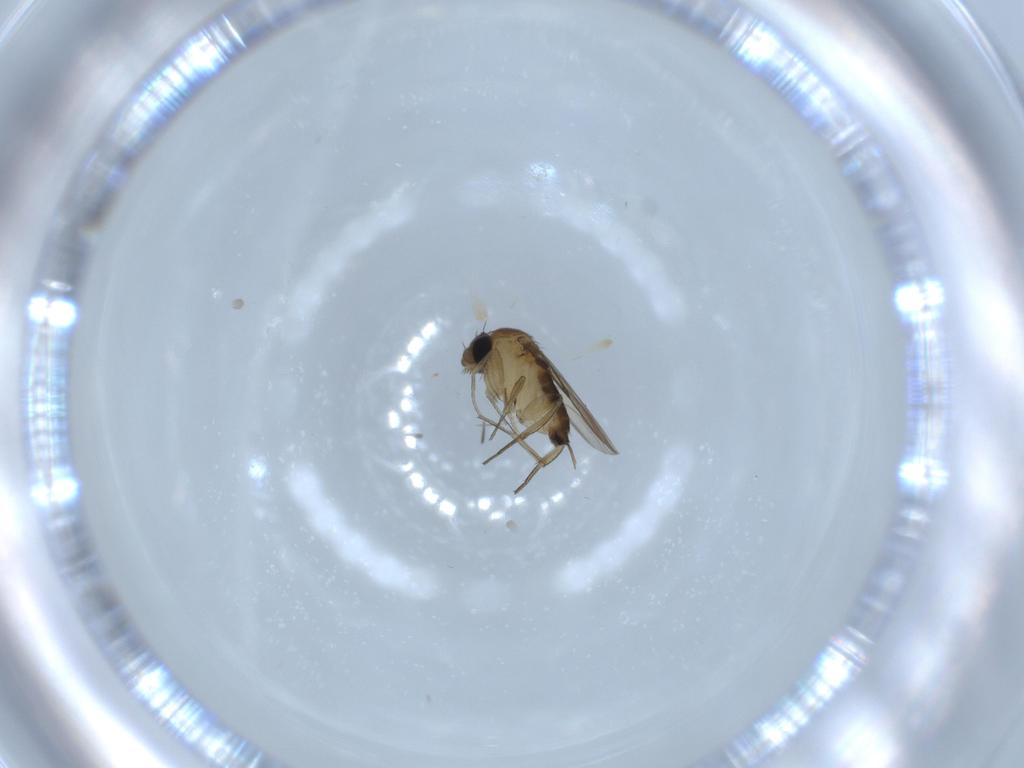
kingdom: Animalia
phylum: Arthropoda
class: Insecta
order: Diptera
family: Phoridae
